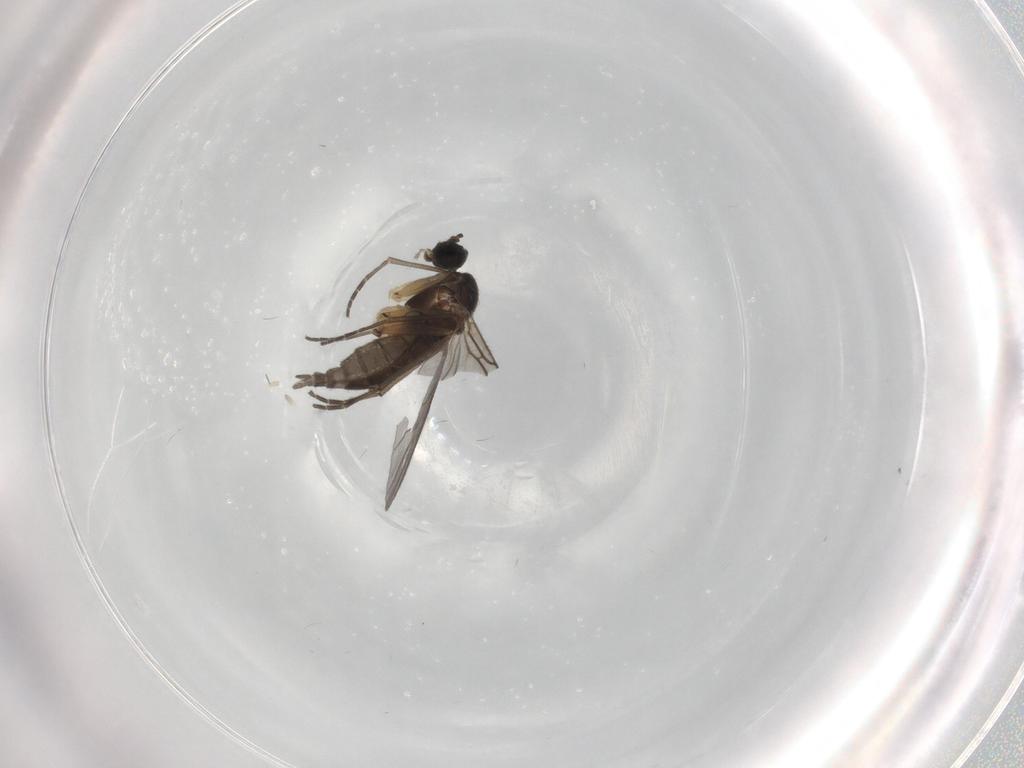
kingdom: Animalia
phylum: Arthropoda
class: Insecta
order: Diptera
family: Sciaridae
